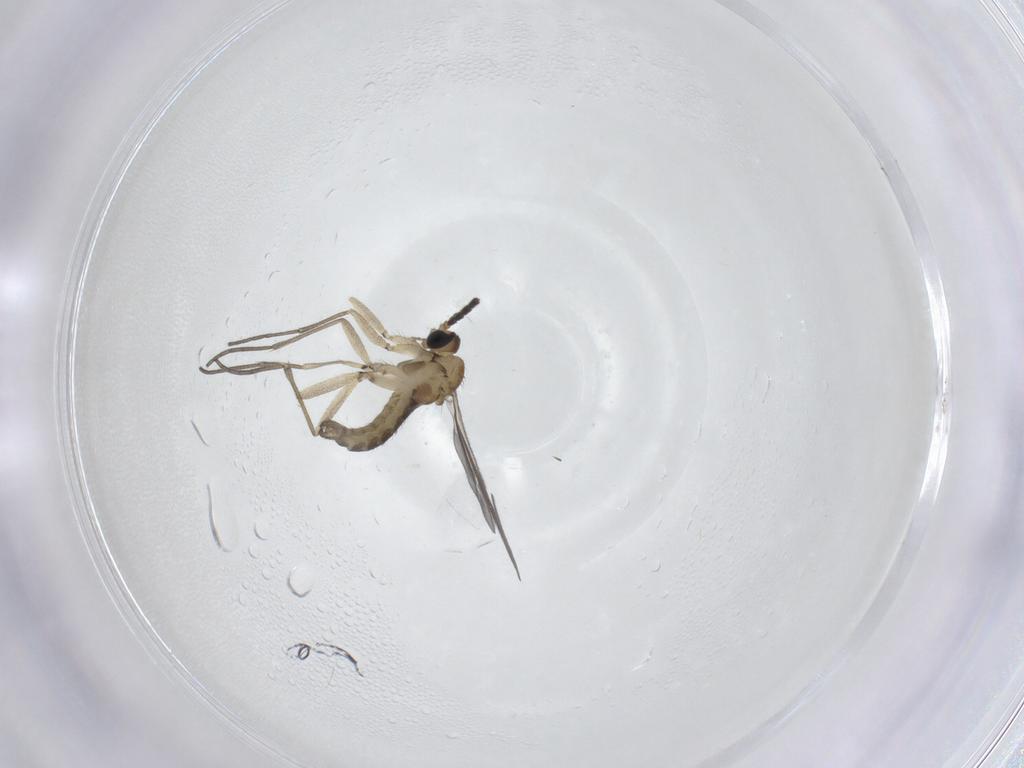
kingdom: Animalia
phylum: Arthropoda
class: Insecta
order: Diptera
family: Sciaridae
